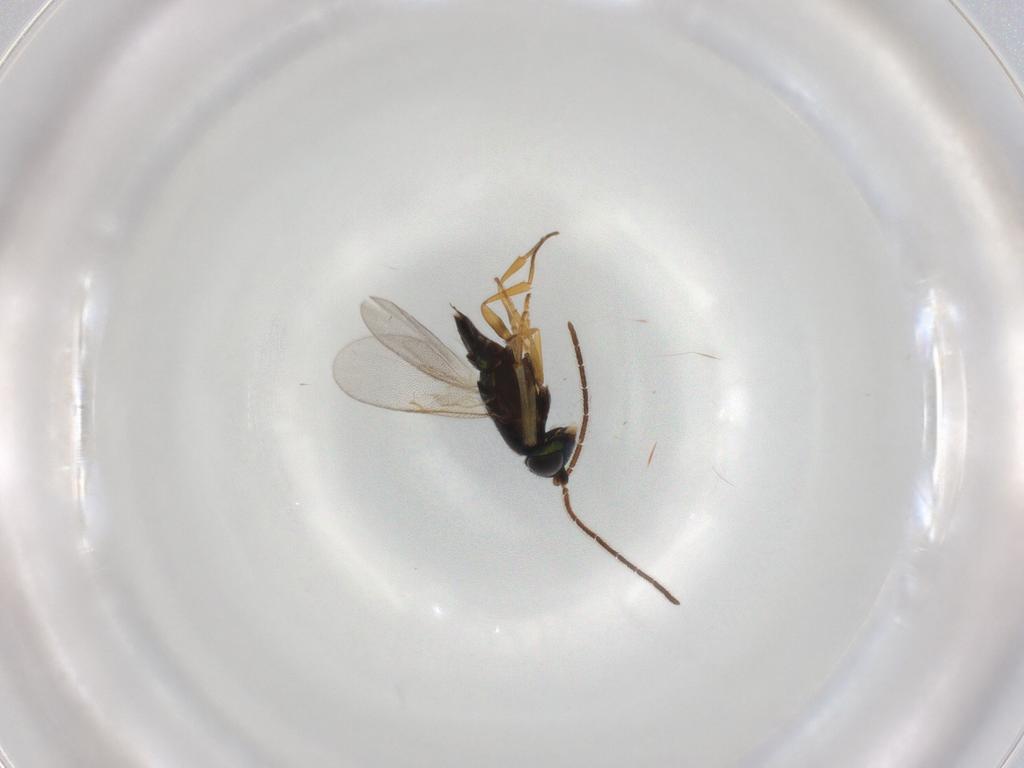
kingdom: Animalia
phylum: Arthropoda
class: Insecta
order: Hymenoptera
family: Encyrtidae
